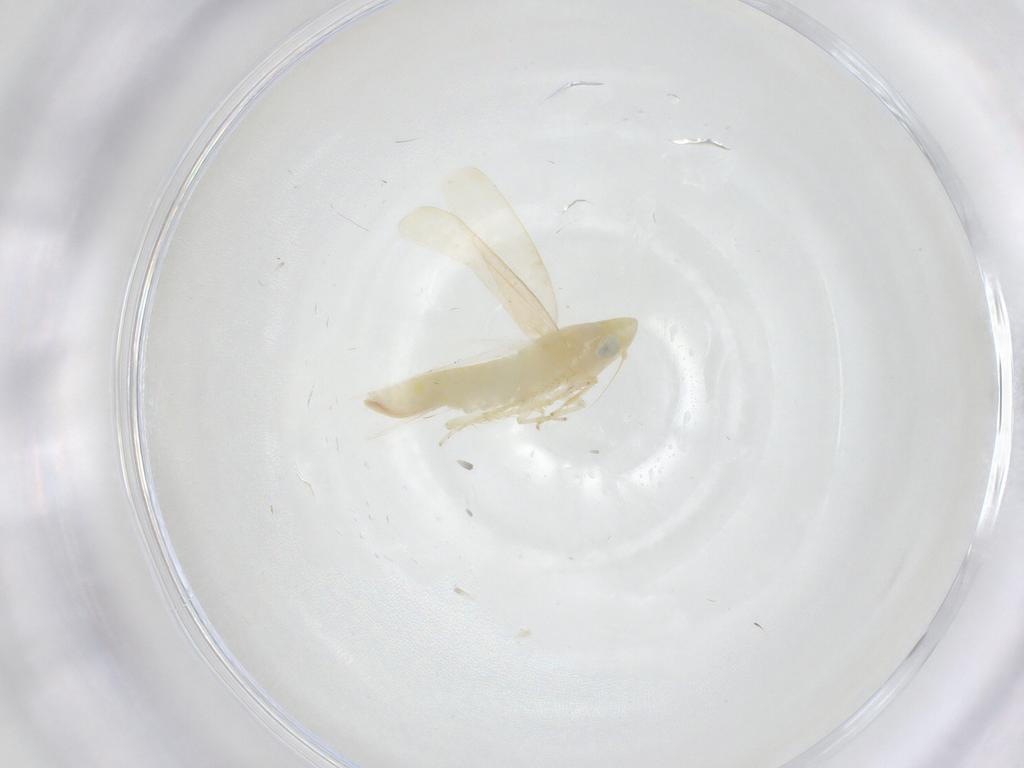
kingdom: Animalia
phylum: Arthropoda
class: Insecta
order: Hemiptera
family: Cicadellidae
